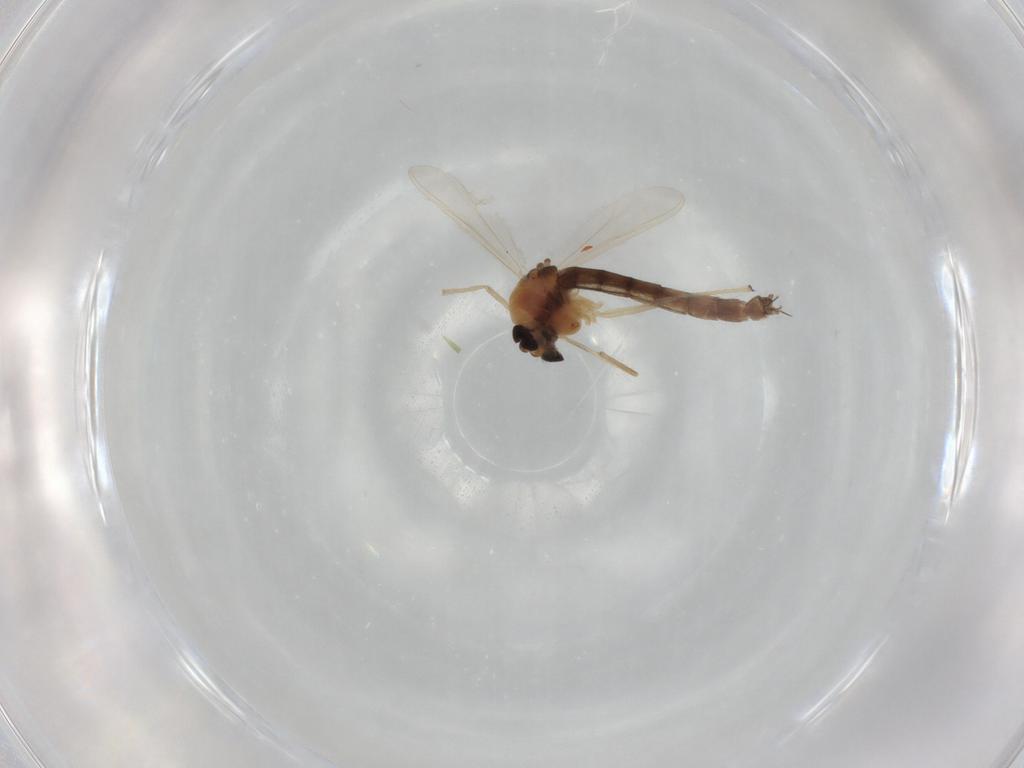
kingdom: Animalia
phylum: Arthropoda
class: Insecta
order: Diptera
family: Chironomidae
